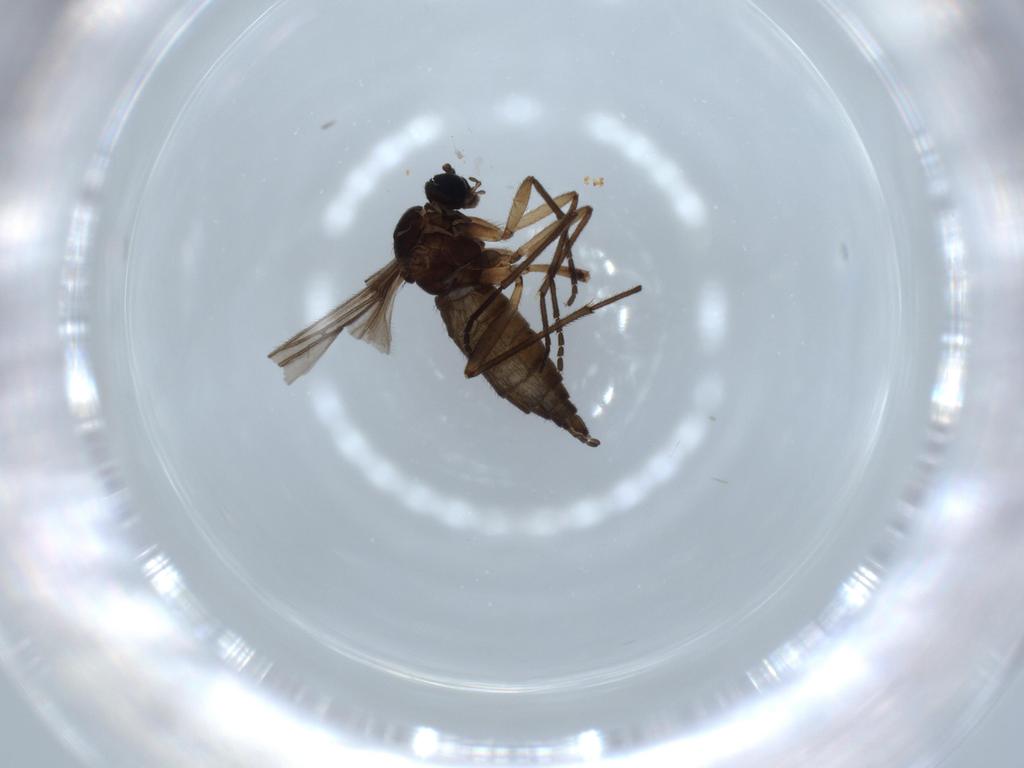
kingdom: Animalia
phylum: Arthropoda
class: Insecta
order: Diptera
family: Sciaridae
